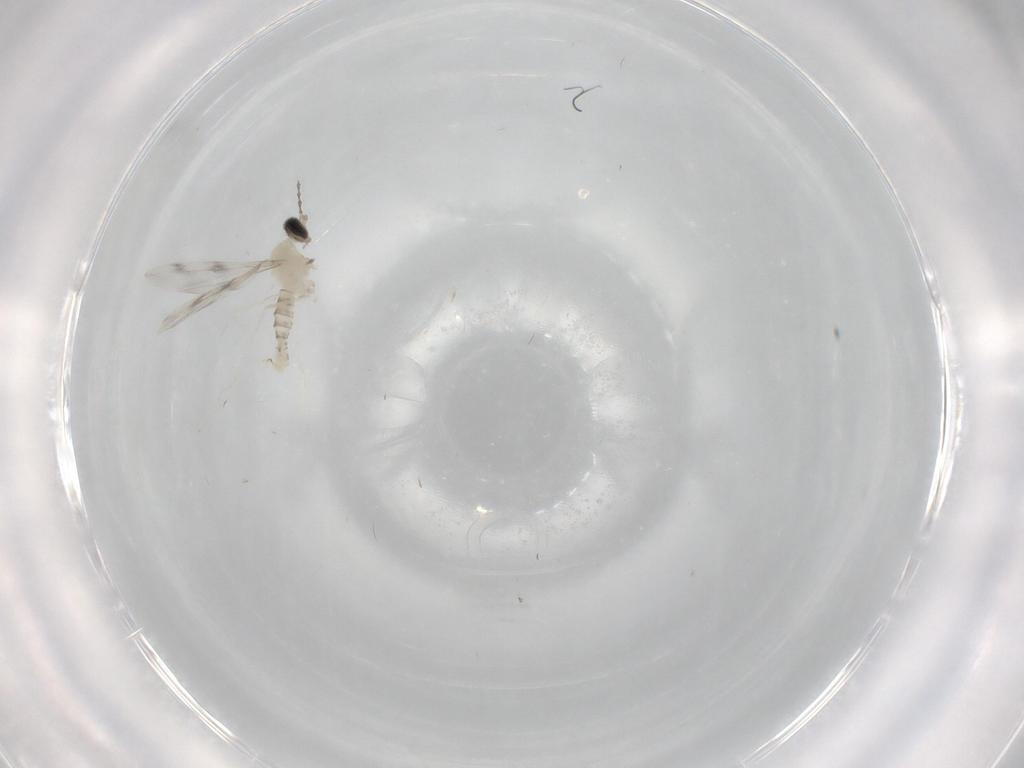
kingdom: Animalia
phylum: Arthropoda
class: Insecta
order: Diptera
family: Cecidomyiidae
